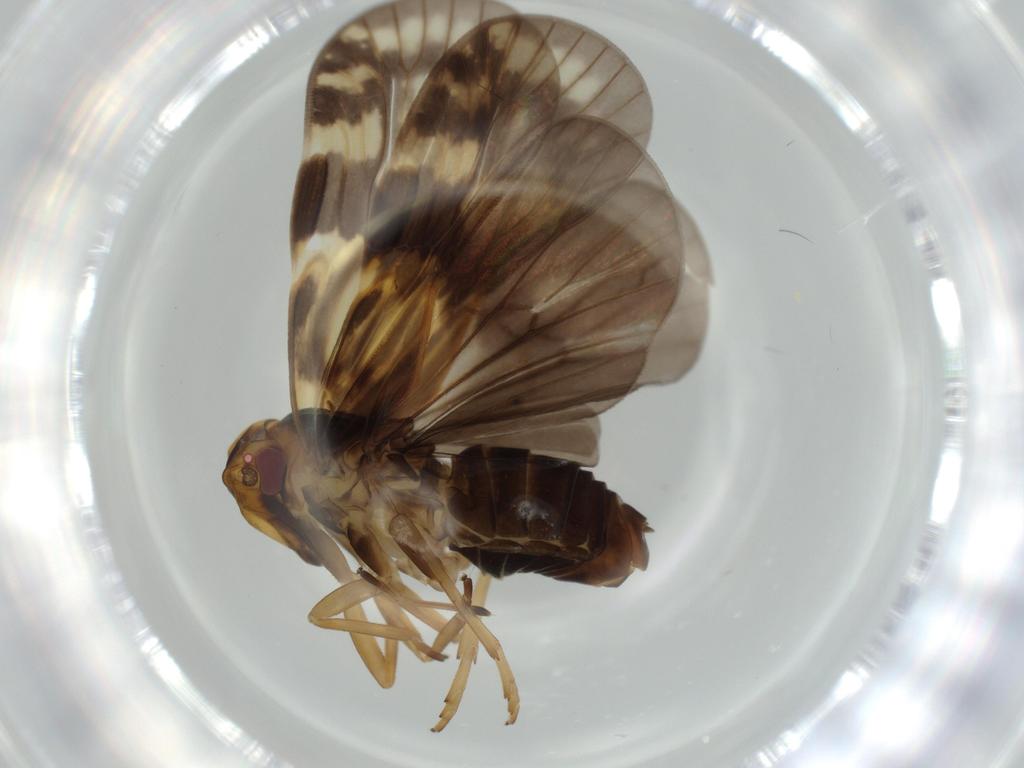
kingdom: Animalia
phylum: Arthropoda
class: Insecta
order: Hemiptera
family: Cixiidae
